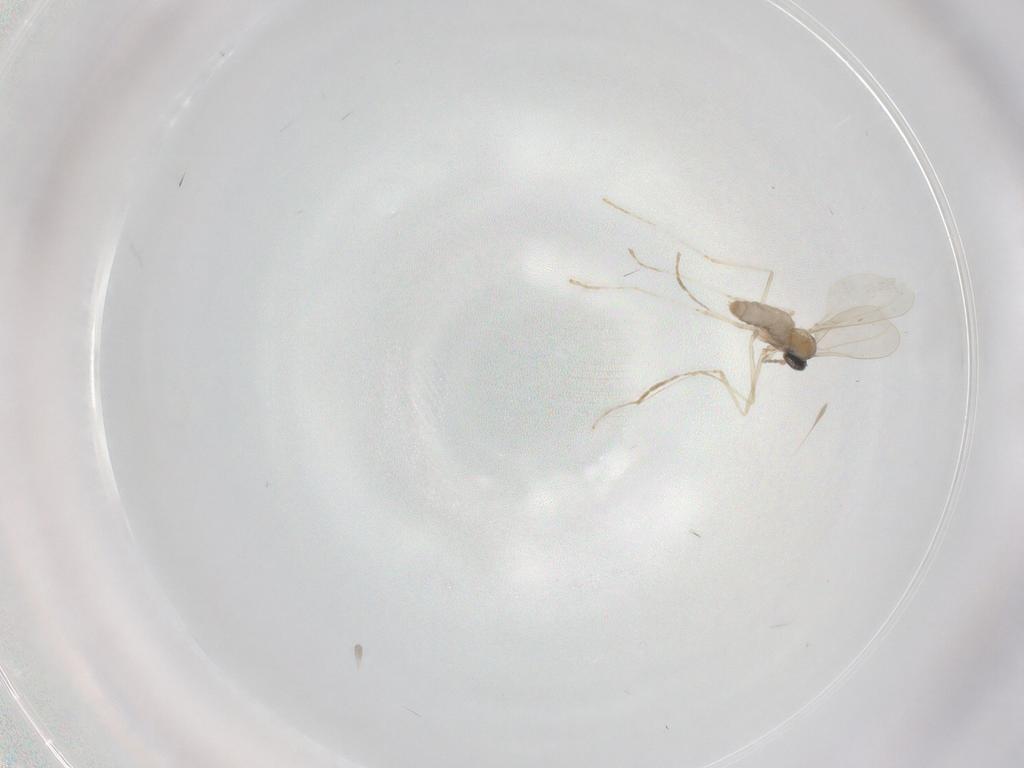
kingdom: Animalia
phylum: Arthropoda
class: Insecta
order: Diptera
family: Chironomidae
